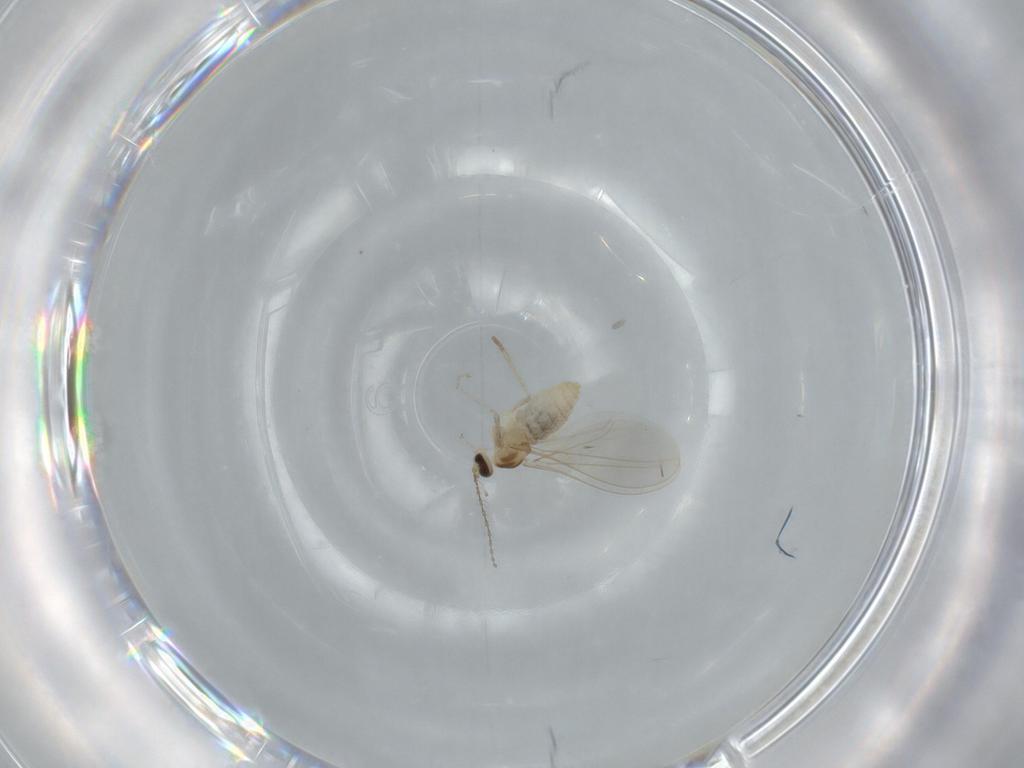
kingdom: Animalia
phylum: Arthropoda
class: Insecta
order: Diptera
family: Cecidomyiidae
